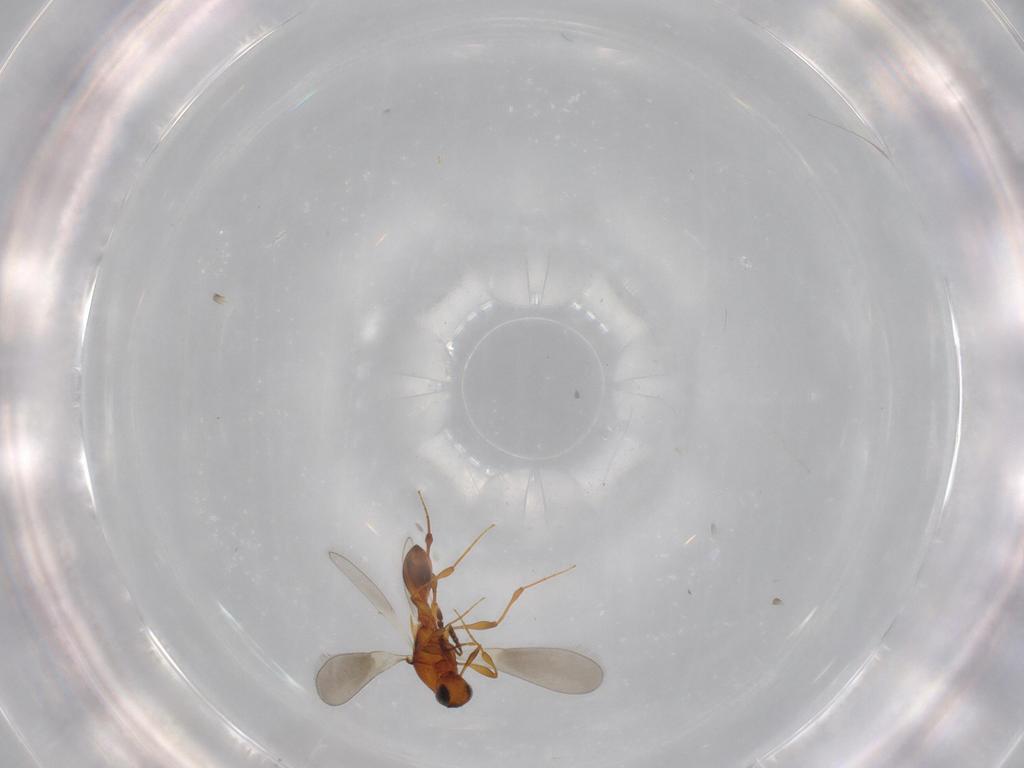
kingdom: Animalia
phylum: Arthropoda
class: Insecta
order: Hymenoptera
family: Platygastridae
